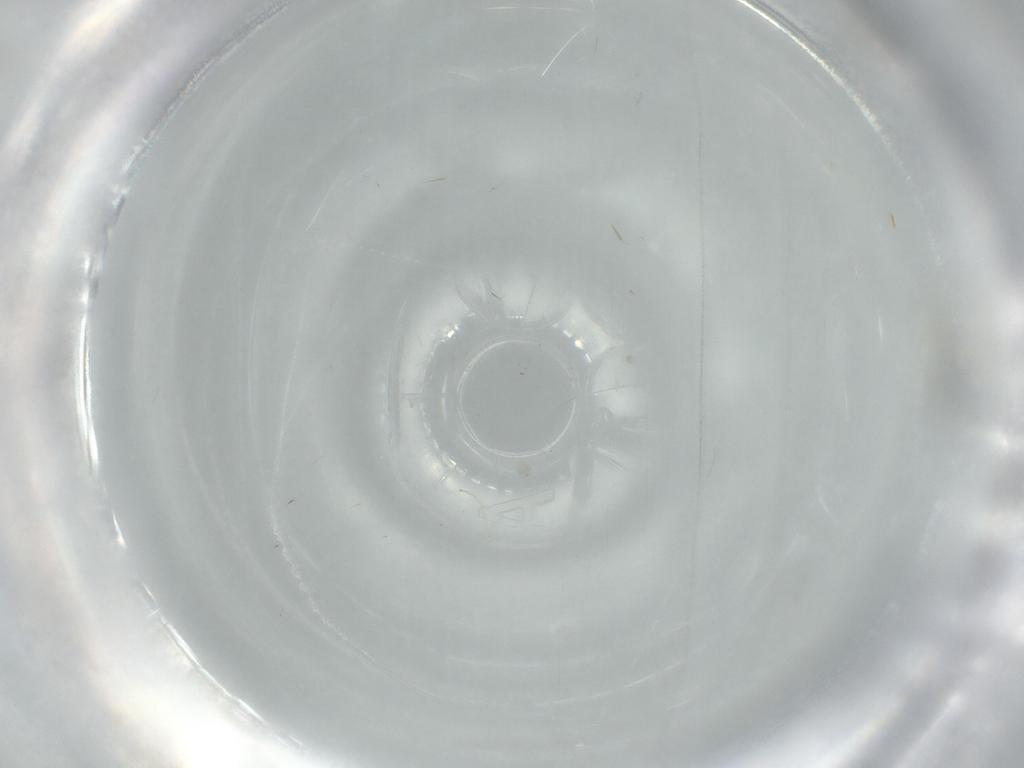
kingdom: Animalia
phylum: Arthropoda
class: Insecta
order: Diptera
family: Cecidomyiidae
